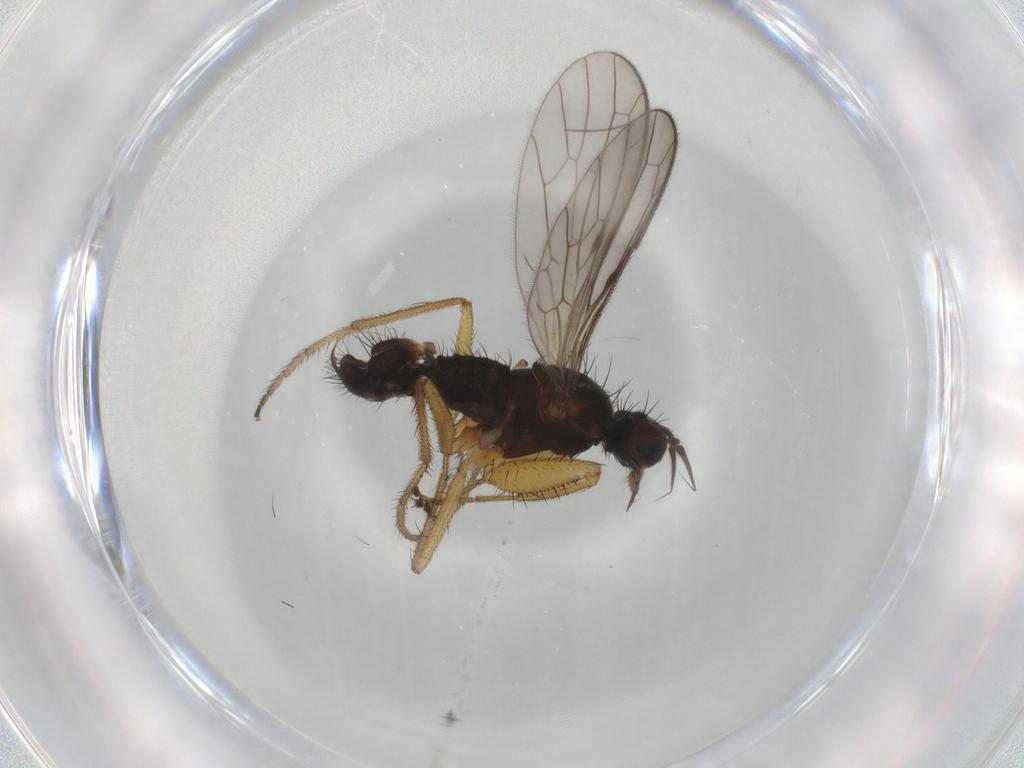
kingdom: Animalia
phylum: Arthropoda
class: Insecta
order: Diptera
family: Empididae
